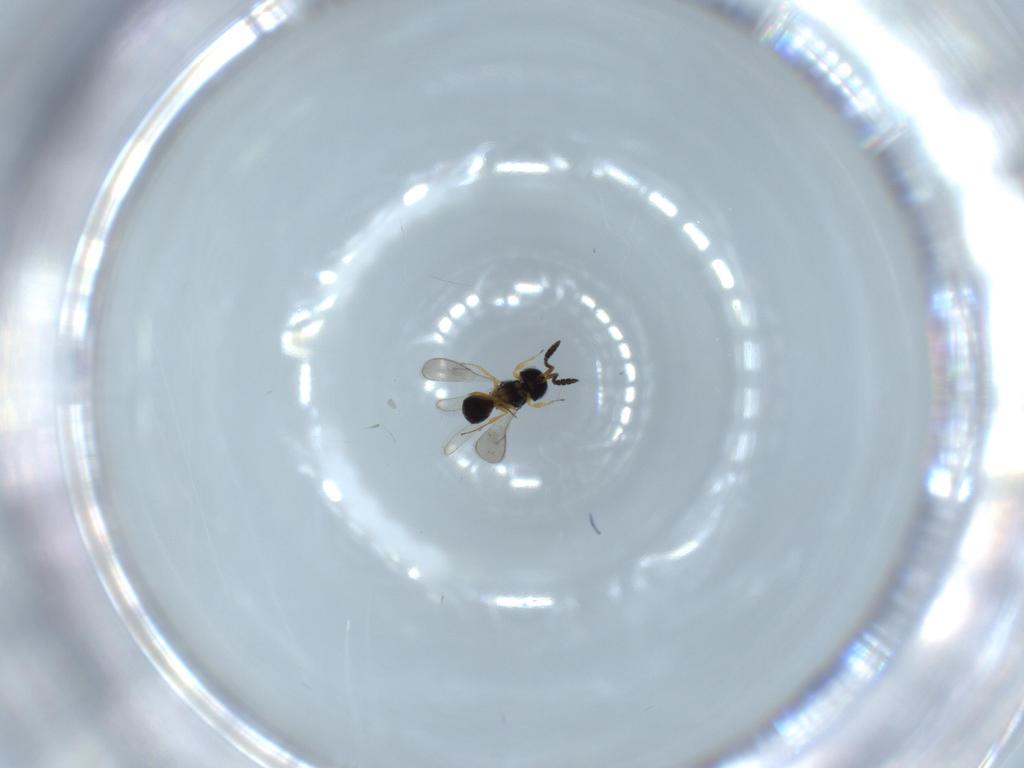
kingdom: Animalia
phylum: Arthropoda
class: Insecta
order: Hymenoptera
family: Scelionidae
